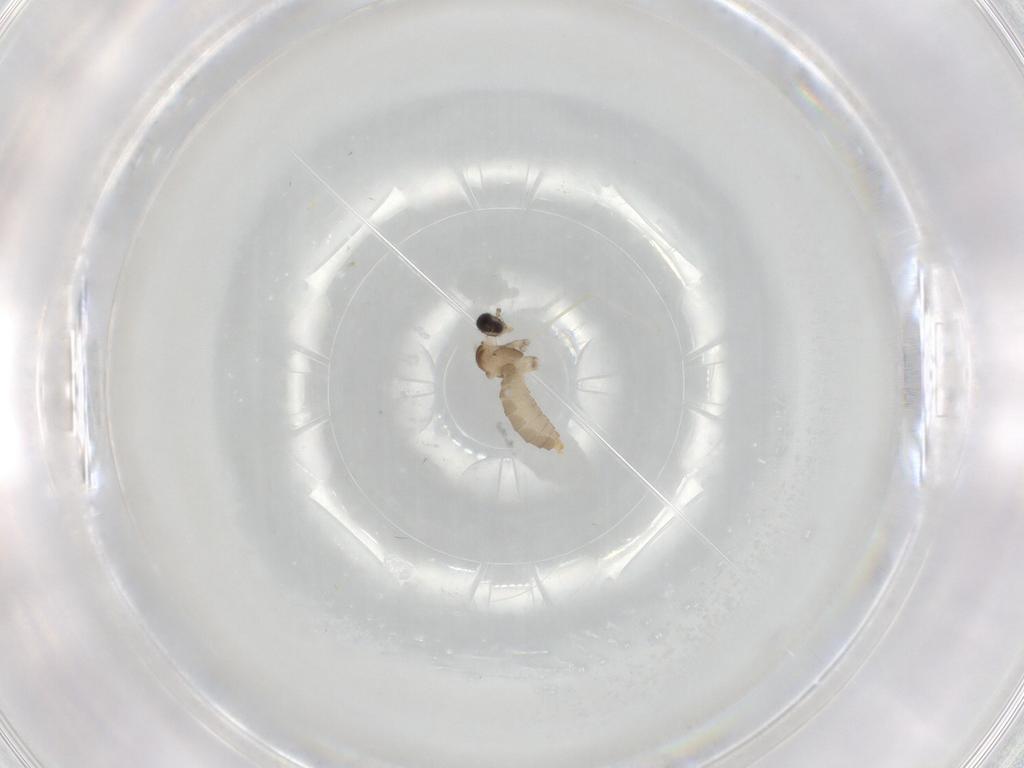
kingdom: Animalia
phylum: Arthropoda
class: Insecta
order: Diptera
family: Cecidomyiidae
